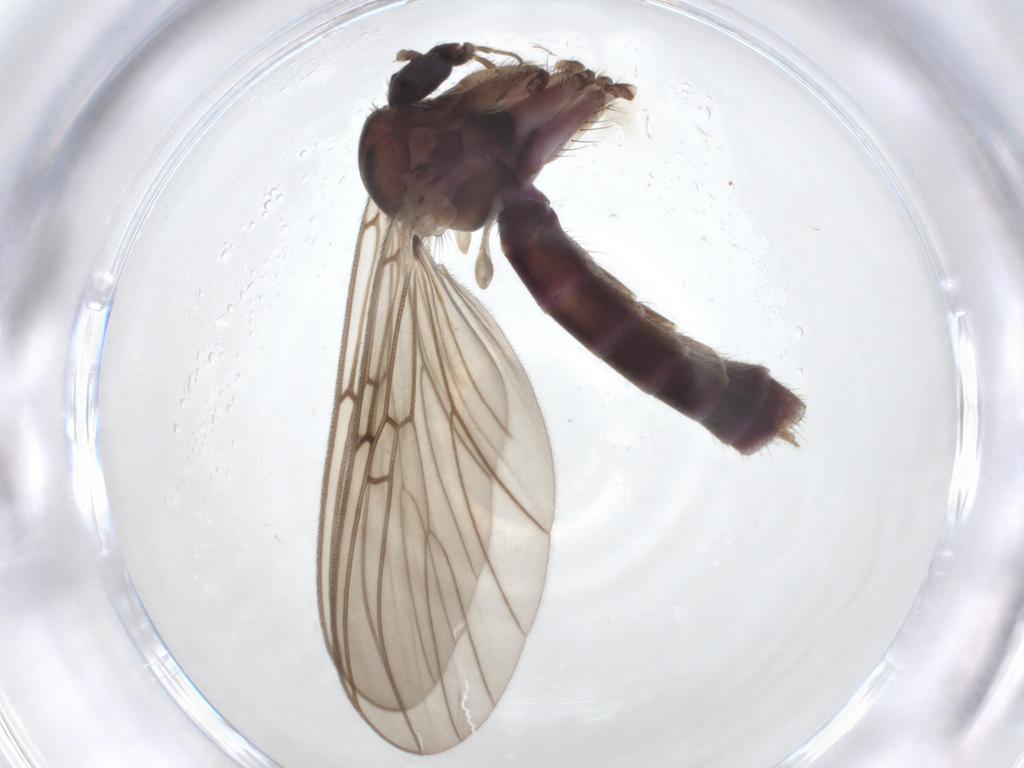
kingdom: Animalia
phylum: Arthropoda
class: Insecta
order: Diptera
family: Mycetophilidae
